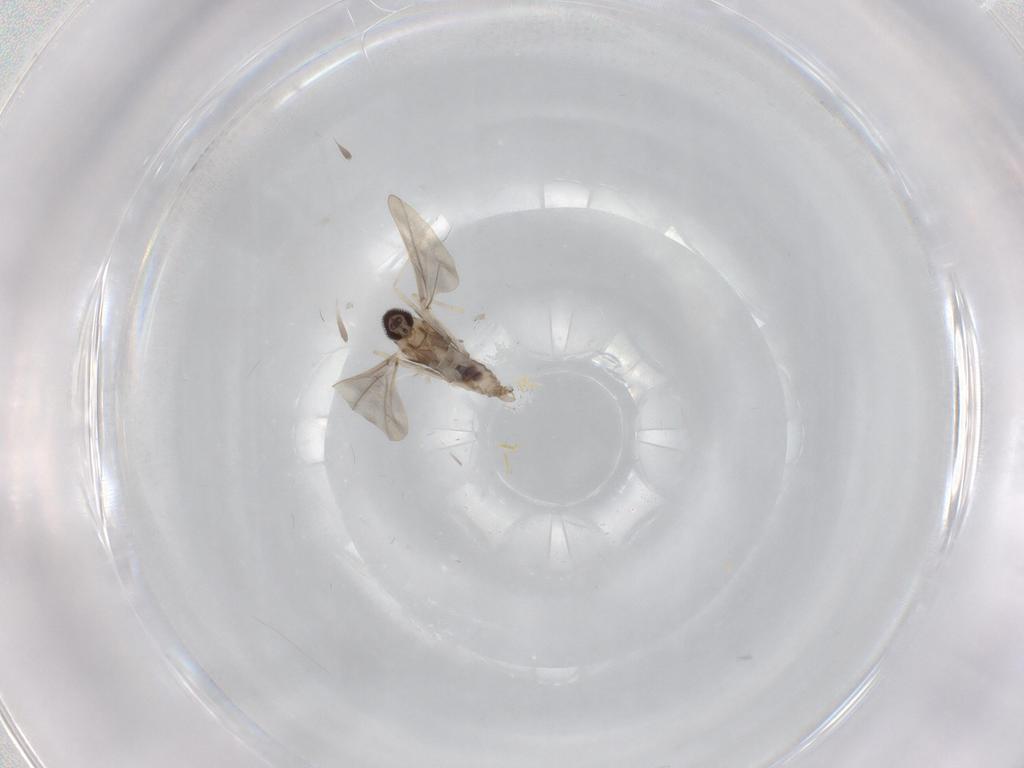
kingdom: Animalia
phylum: Arthropoda
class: Insecta
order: Diptera
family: Cecidomyiidae
